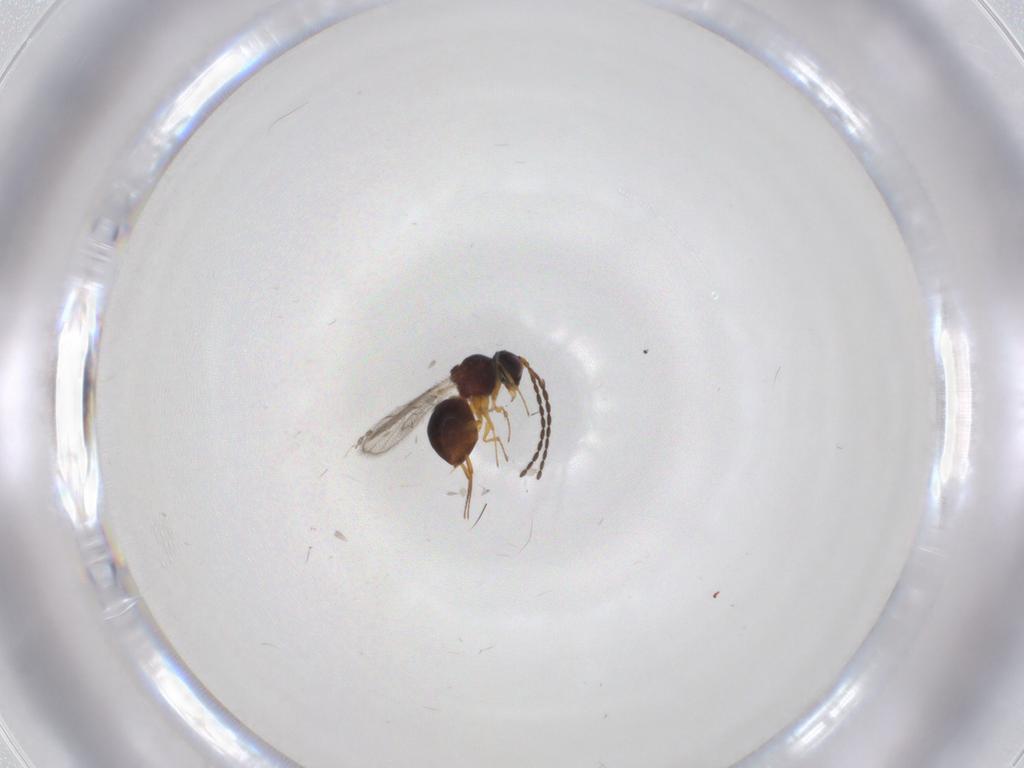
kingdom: Animalia
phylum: Arthropoda
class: Insecta
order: Hymenoptera
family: Figitidae
